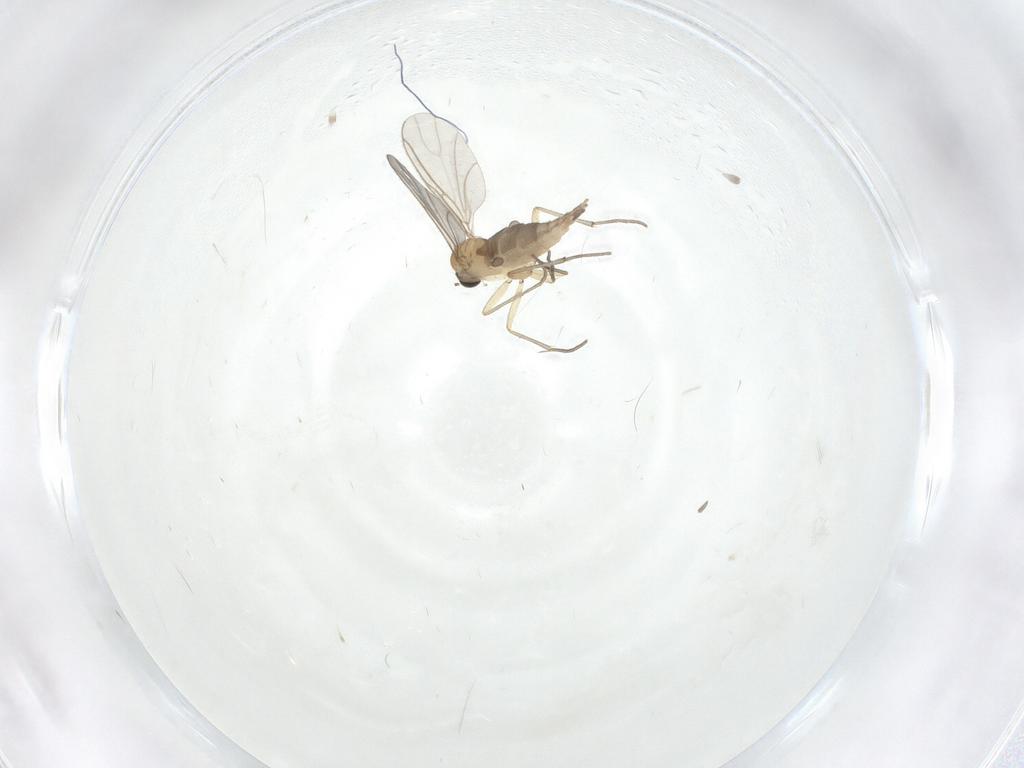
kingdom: Animalia
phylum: Arthropoda
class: Insecta
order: Diptera
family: Sciaridae
